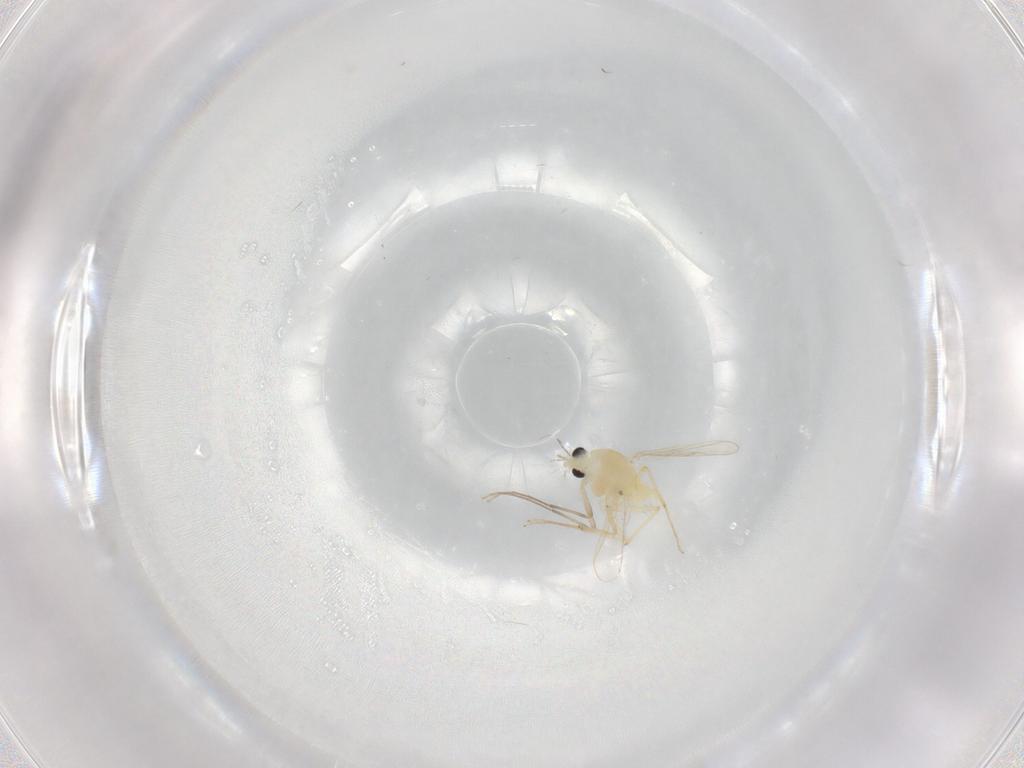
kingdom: Animalia
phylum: Arthropoda
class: Insecta
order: Diptera
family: Chironomidae
